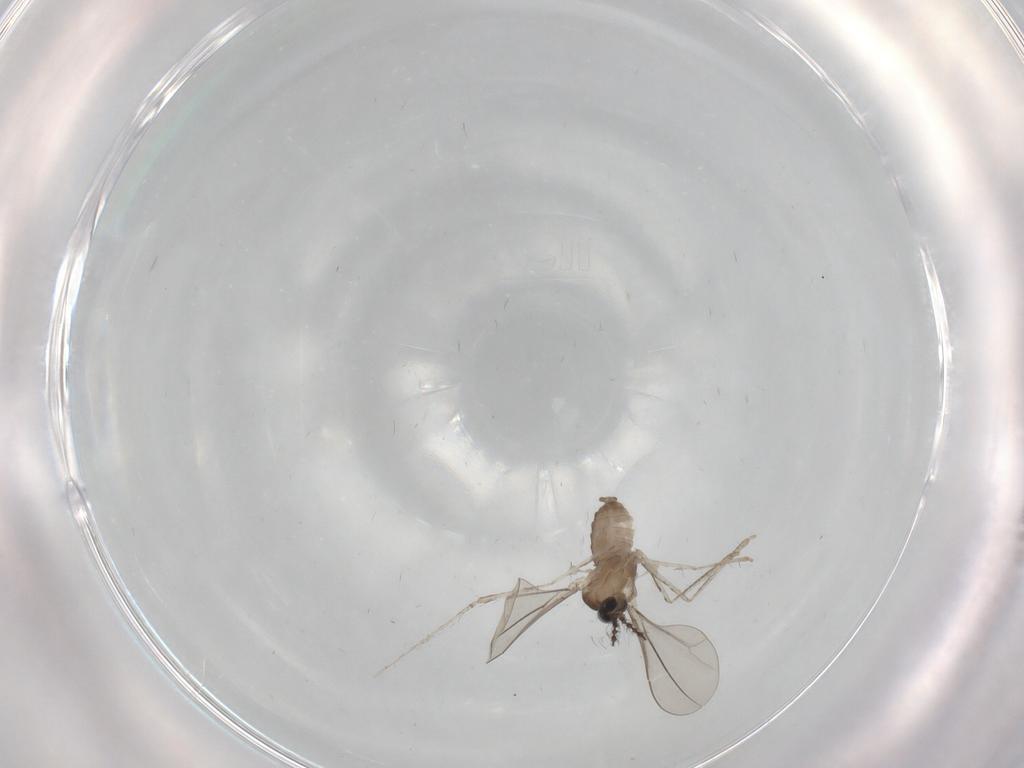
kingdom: Animalia
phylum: Arthropoda
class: Insecta
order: Diptera
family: Cecidomyiidae
